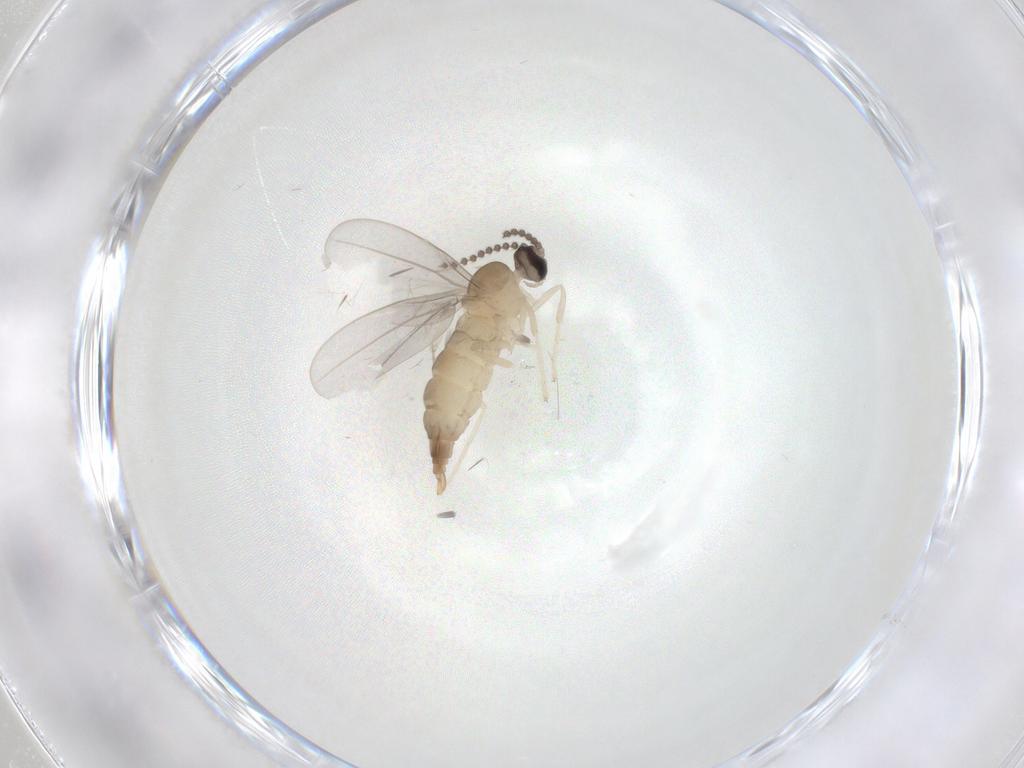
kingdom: Animalia
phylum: Arthropoda
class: Insecta
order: Diptera
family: Cecidomyiidae
